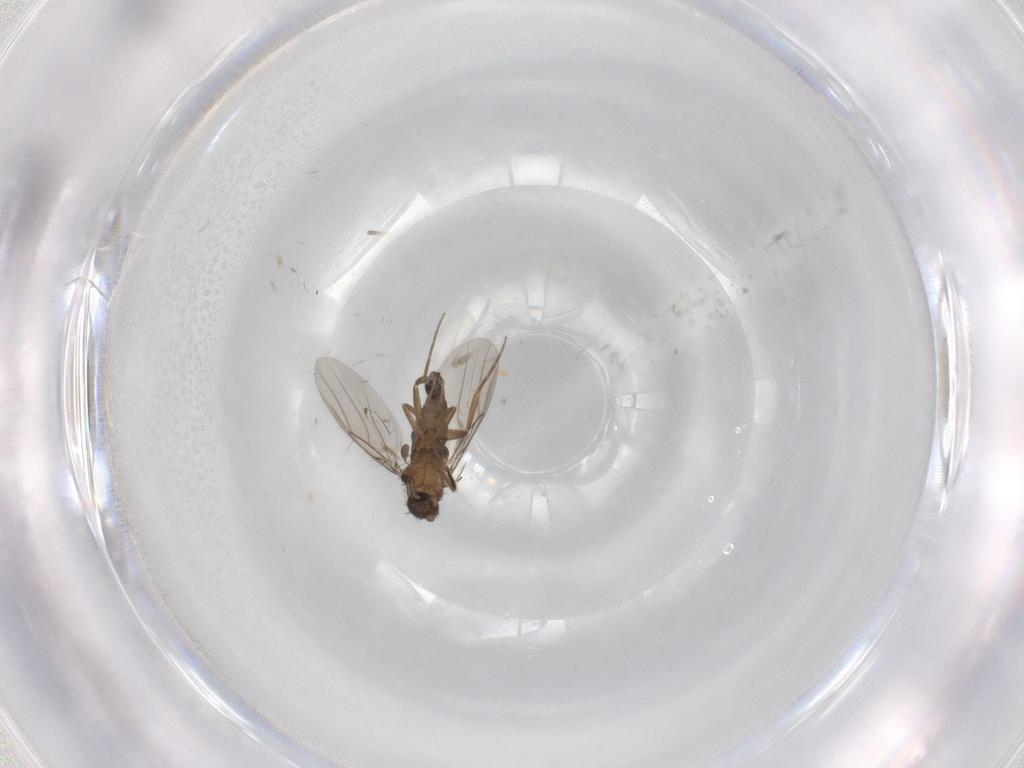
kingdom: Animalia
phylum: Arthropoda
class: Insecta
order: Diptera
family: Phoridae
